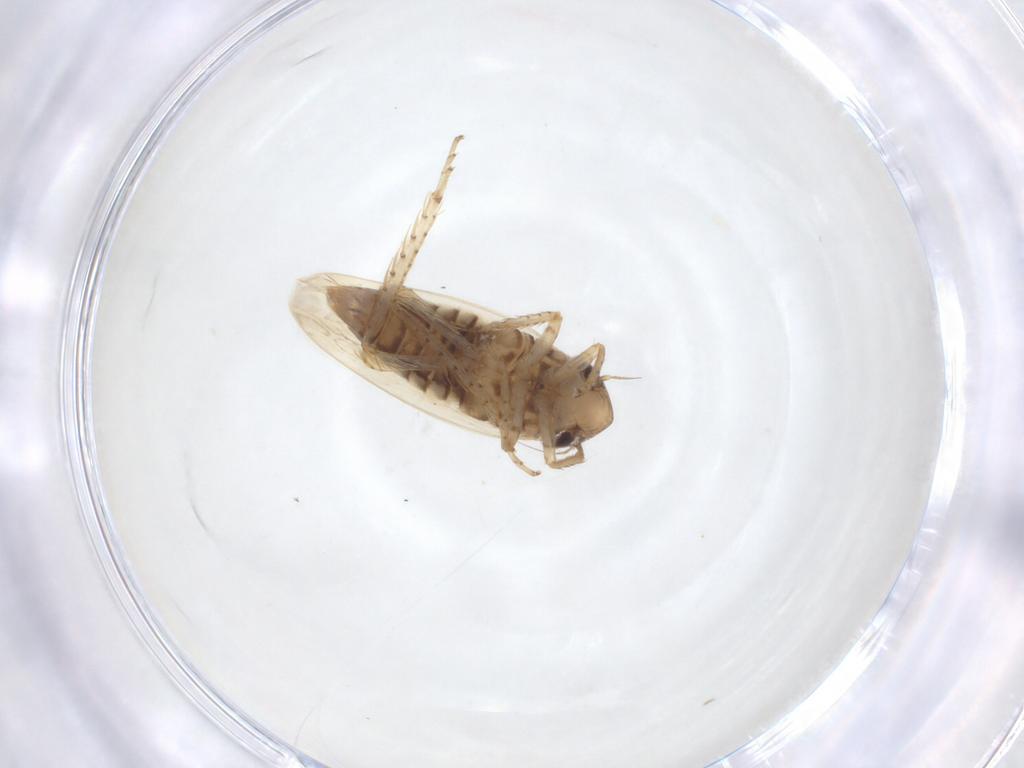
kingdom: Animalia
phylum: Arthropoda
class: Insecta
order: Hemiptera
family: Cicadellidae
